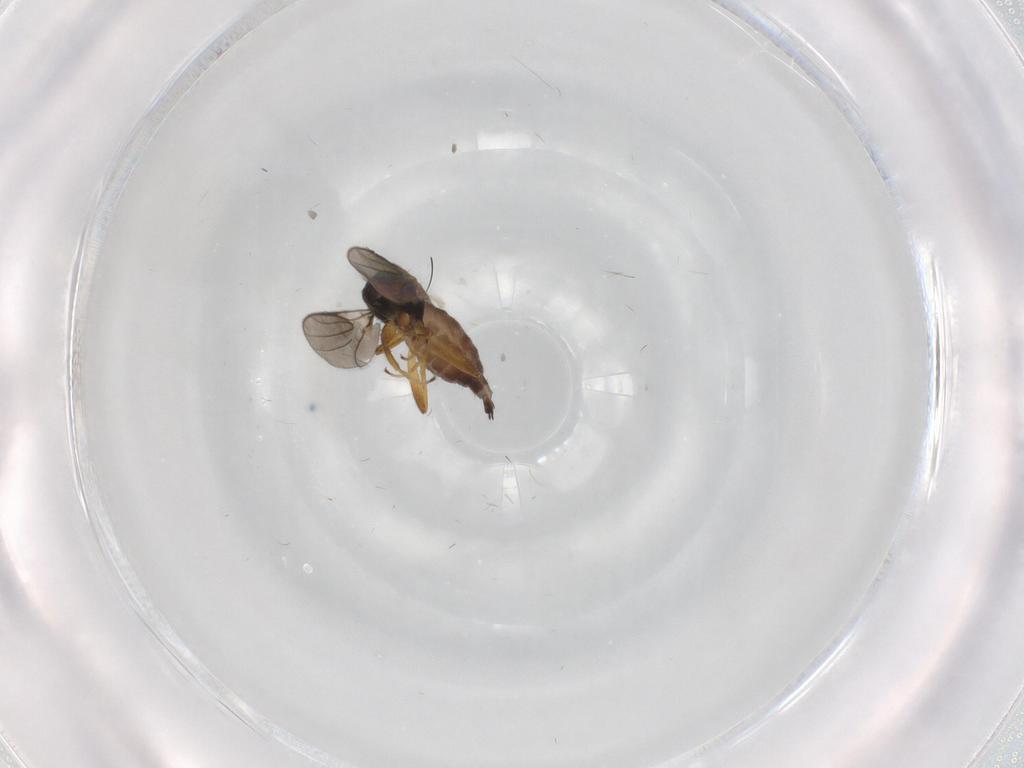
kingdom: Animalia
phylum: Arthropoda
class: Insecta
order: Diptera
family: Hybotidae
